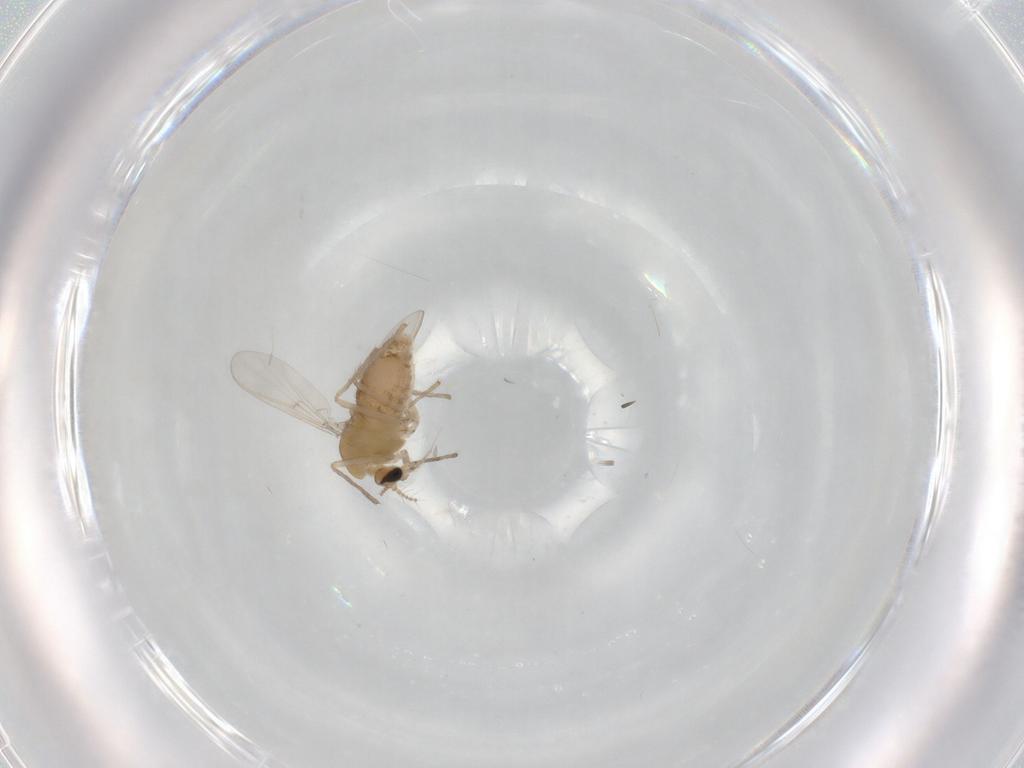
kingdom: Animalia
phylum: Arthropoda
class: Insecta
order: Diptera
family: Chironomidae
